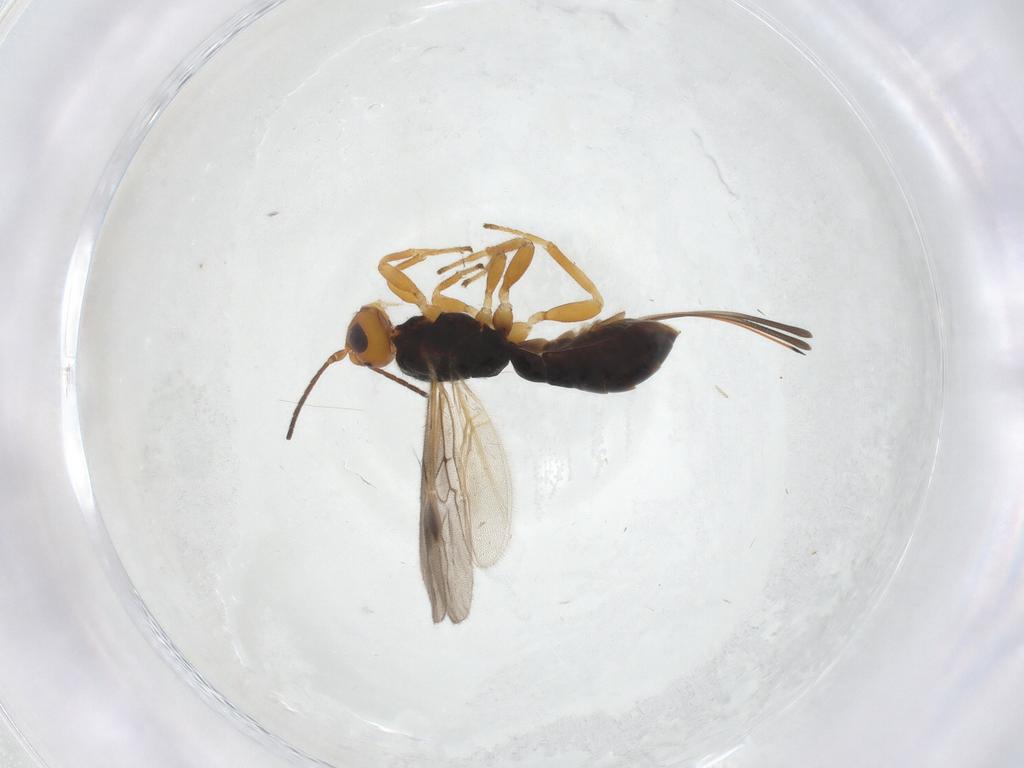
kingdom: Animalia
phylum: Arthropoda
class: Insecta
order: Hymenoptera
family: Braconidae
